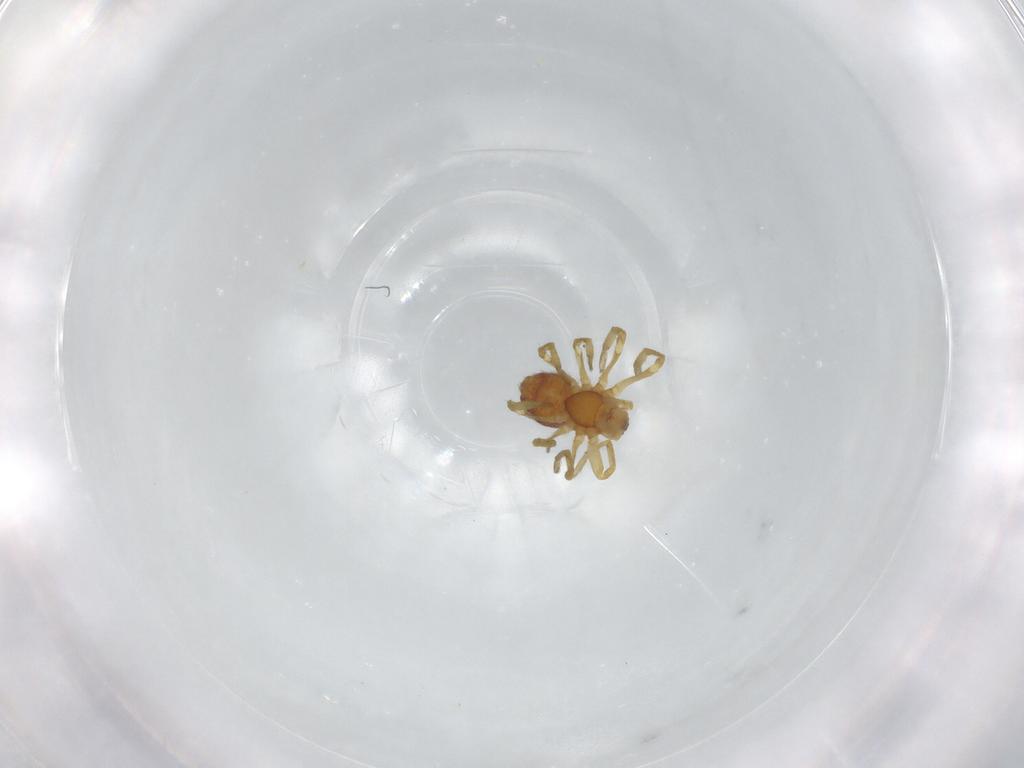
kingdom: Animalia
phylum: Arthropoda
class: Arachnida
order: Araneae
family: Dictynidae
